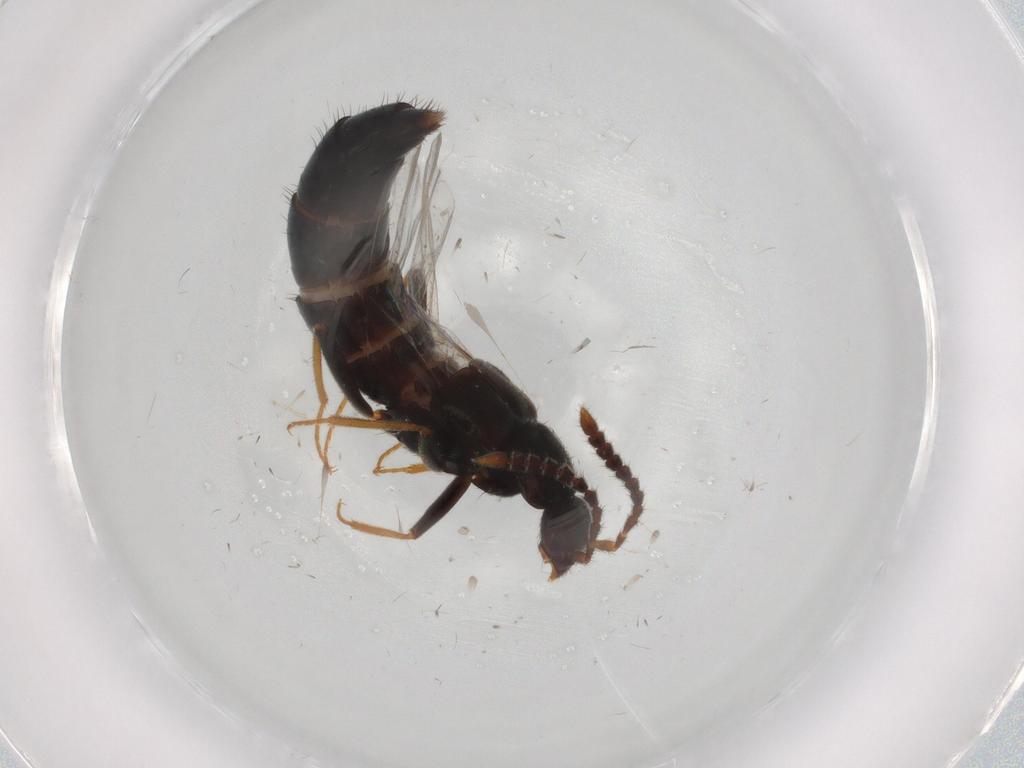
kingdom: Animalia
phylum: Arthropoda
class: Insecta
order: Coleoptera
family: Staphylinidae
